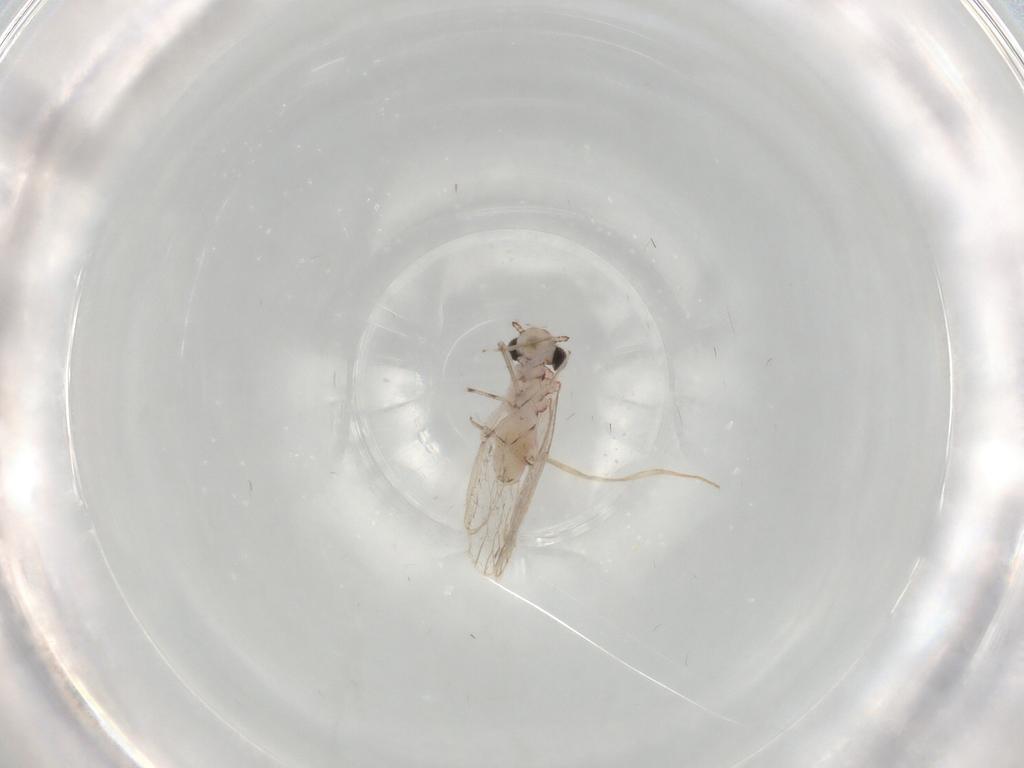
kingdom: Animalia
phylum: Arthropoda
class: Insecta
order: Psocodea
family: Caeciliusidae
